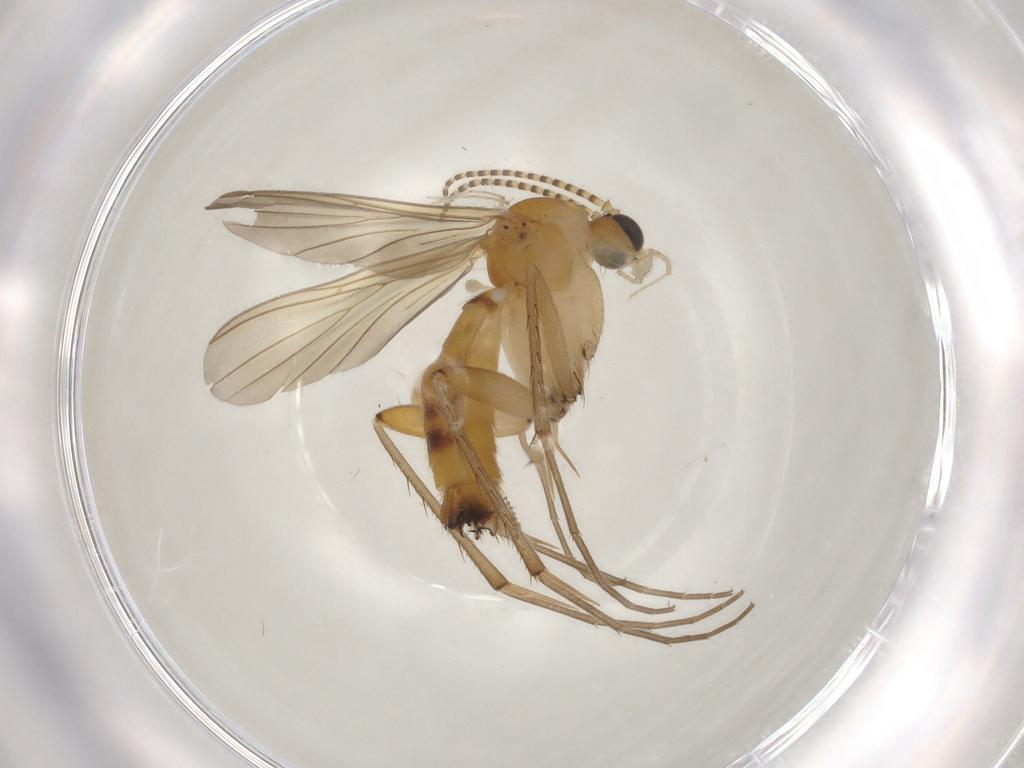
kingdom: Animalia
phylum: Arthropoda
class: Insecta
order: Diptera
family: Mycetophilidae
